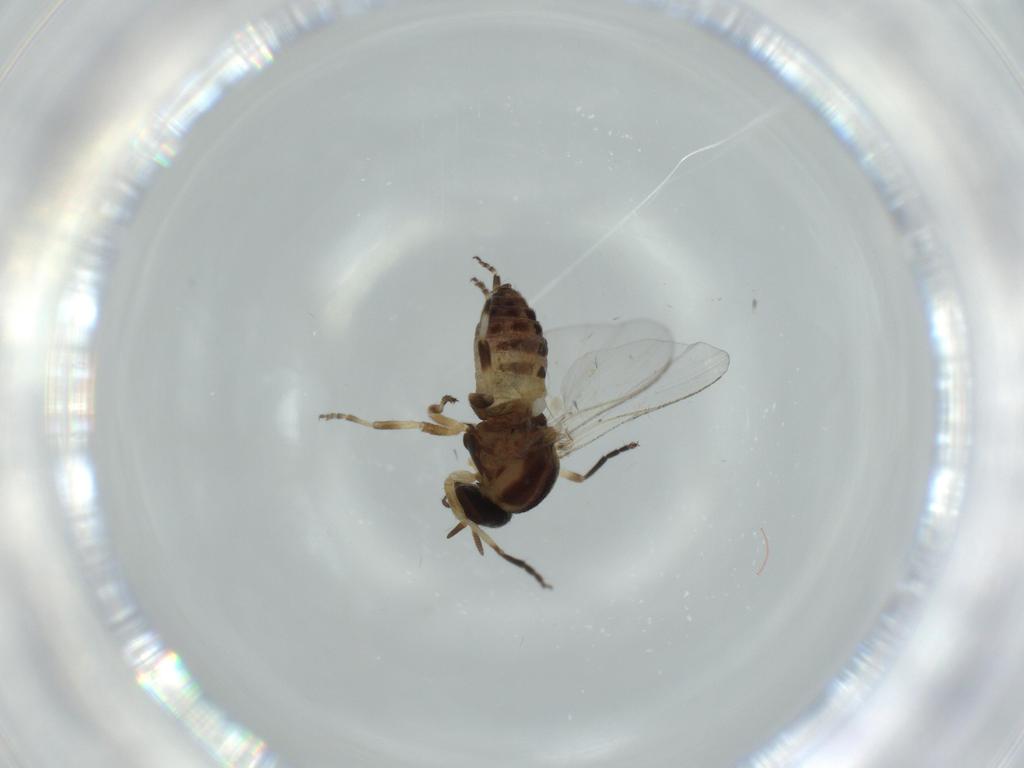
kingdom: Animalia
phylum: Arthropoda
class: Insecta
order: Diptera
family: Phoridae
